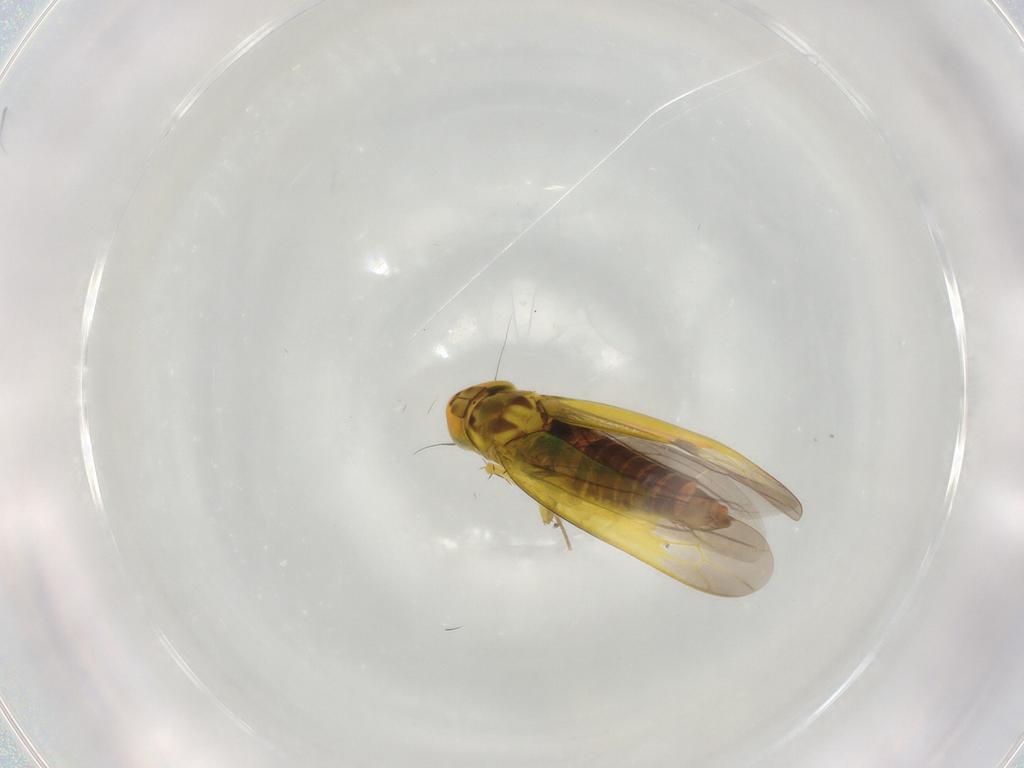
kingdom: Animalia
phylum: Arthropoda
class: Insecta
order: Hemiptera
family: Cicadellidae
